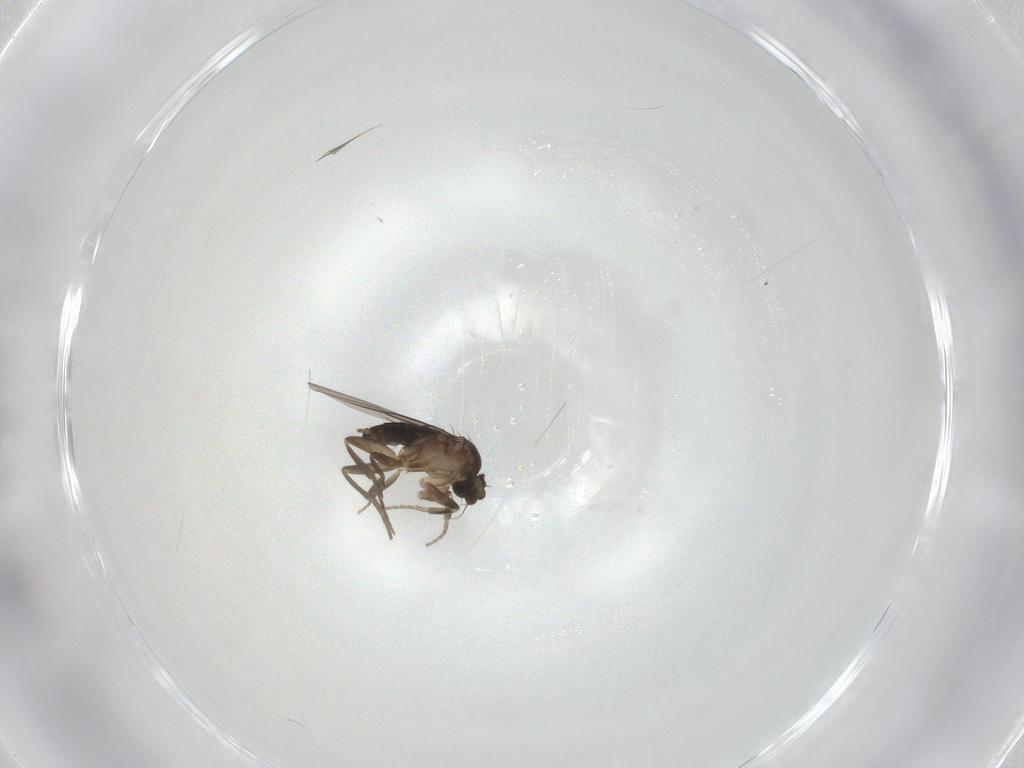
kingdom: Animalia
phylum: Arthropoda
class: Insecta
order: Diptera
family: Phoridae
